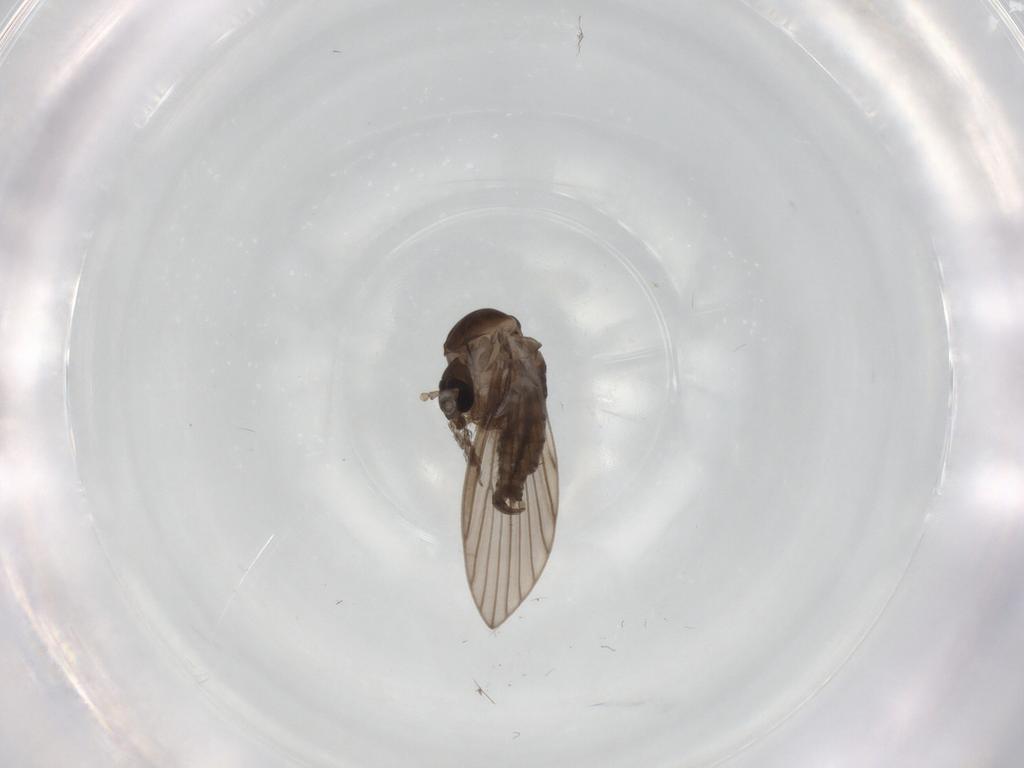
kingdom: Animalia
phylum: Arthropoda
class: Insecta
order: Diptera
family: Psychodidae
